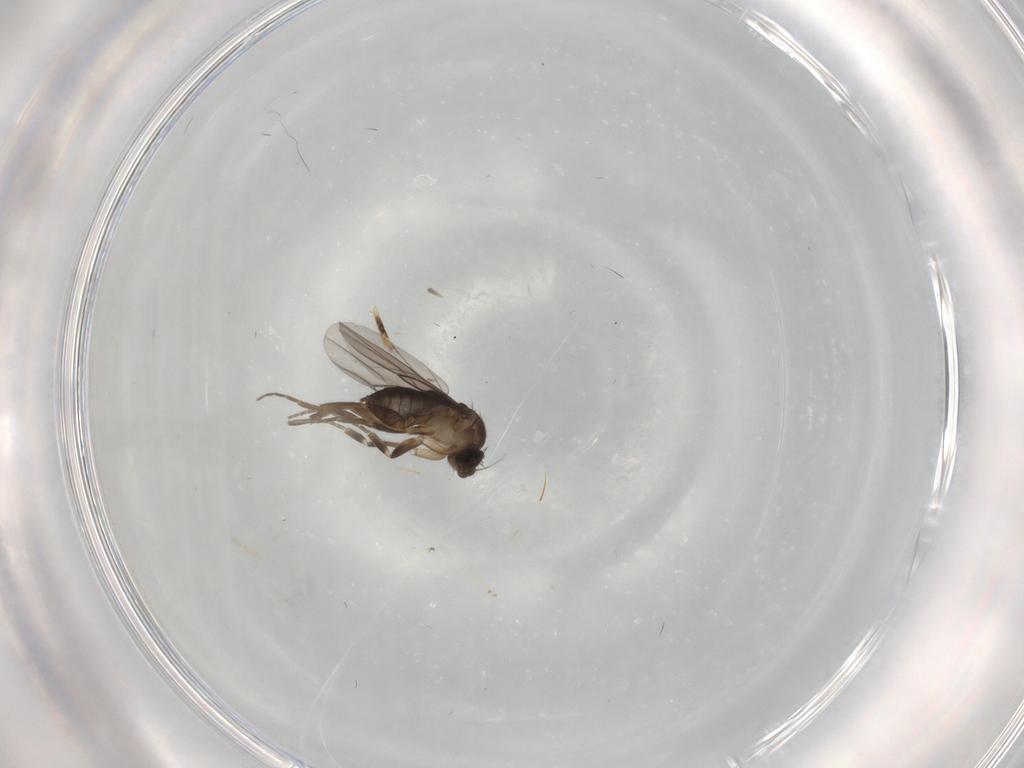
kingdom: Animalia
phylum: Arthropoda
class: Insecta
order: Diptera
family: Cecidomyiidae
